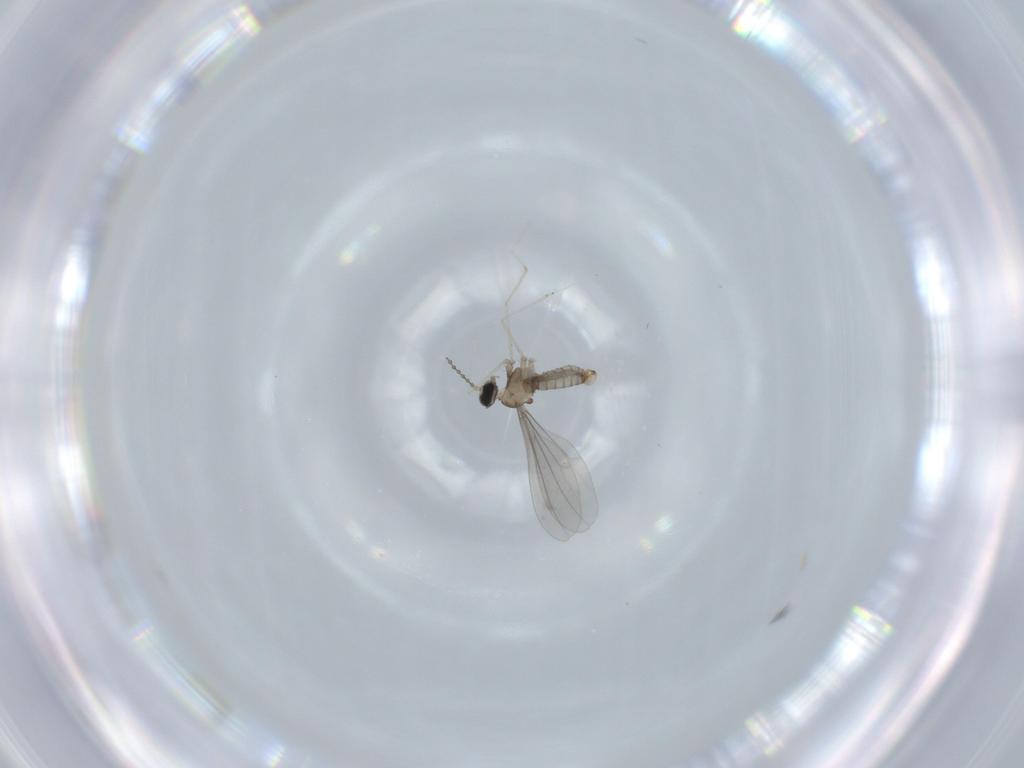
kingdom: Animalia
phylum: Arthropoda
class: Insecta
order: Diptera
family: Cecidomyiidae
